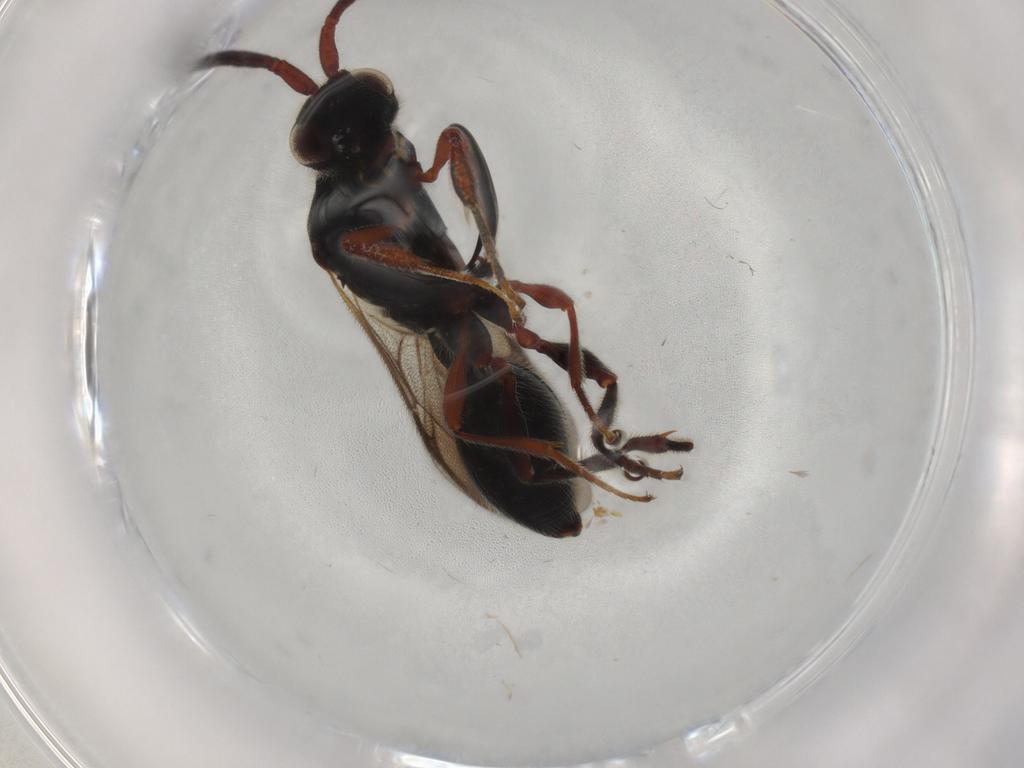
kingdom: Animalia
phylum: Arthropoda
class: Insecta
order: Hymenoptera
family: Diapriidae
